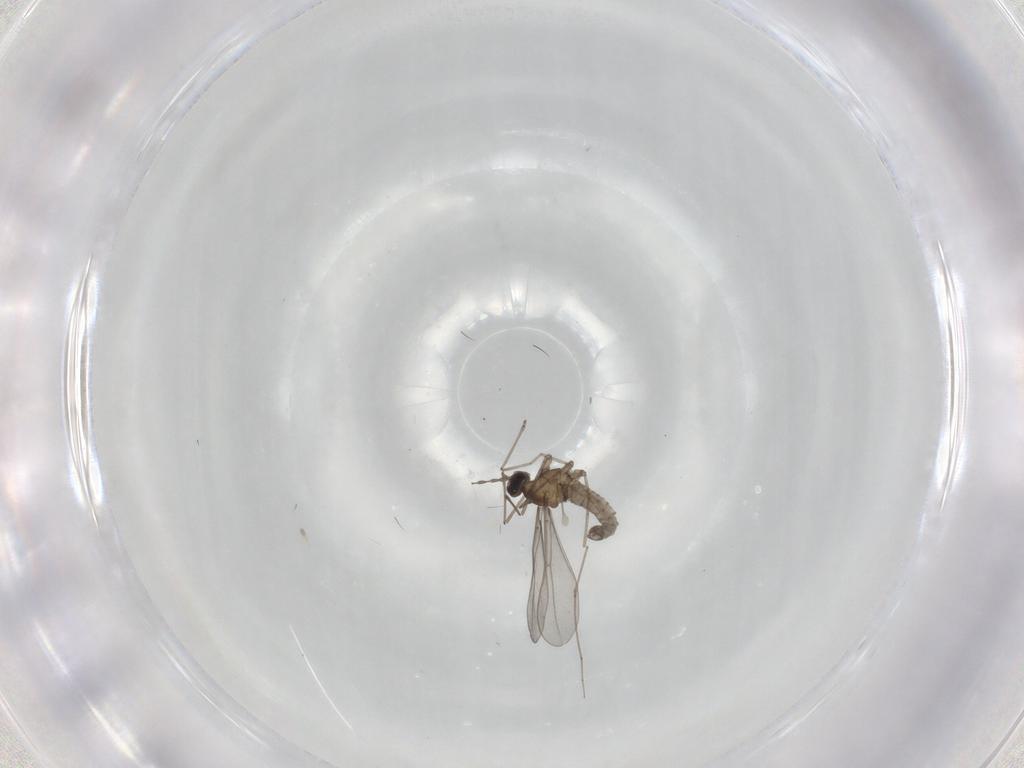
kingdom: Animalia
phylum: Arthropoda
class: Insecta
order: Diptera
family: Cecidomyiidae
